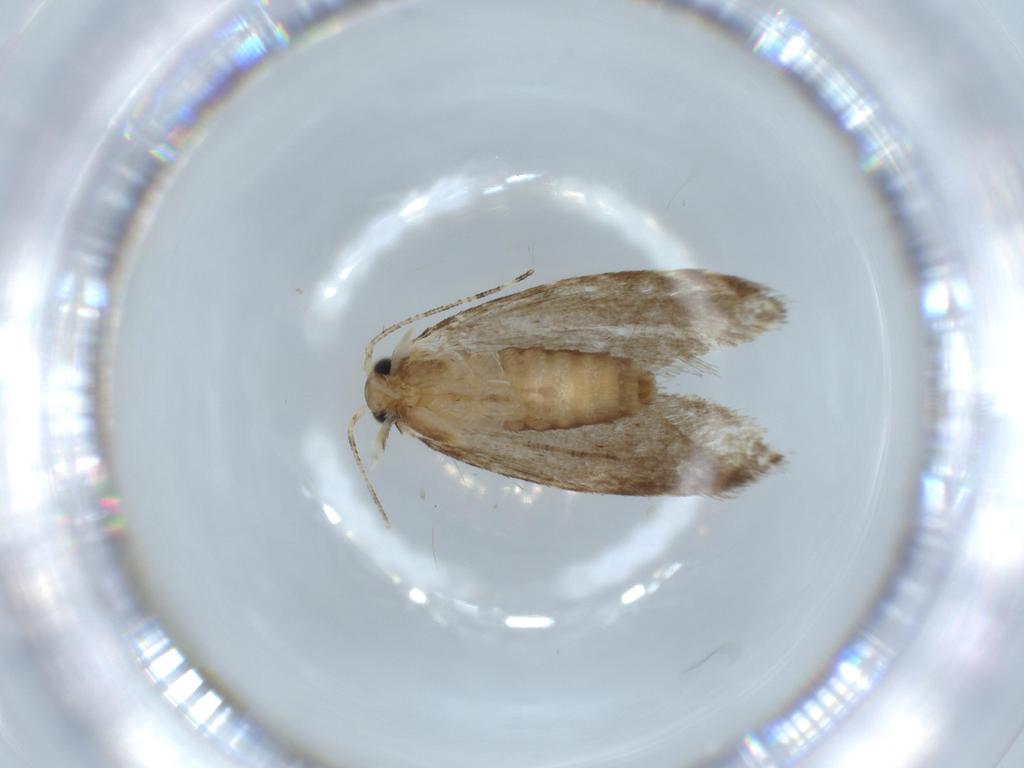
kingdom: Animalia
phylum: Arthropoda
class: Insecta
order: Lepidoptera
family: Tineidae
